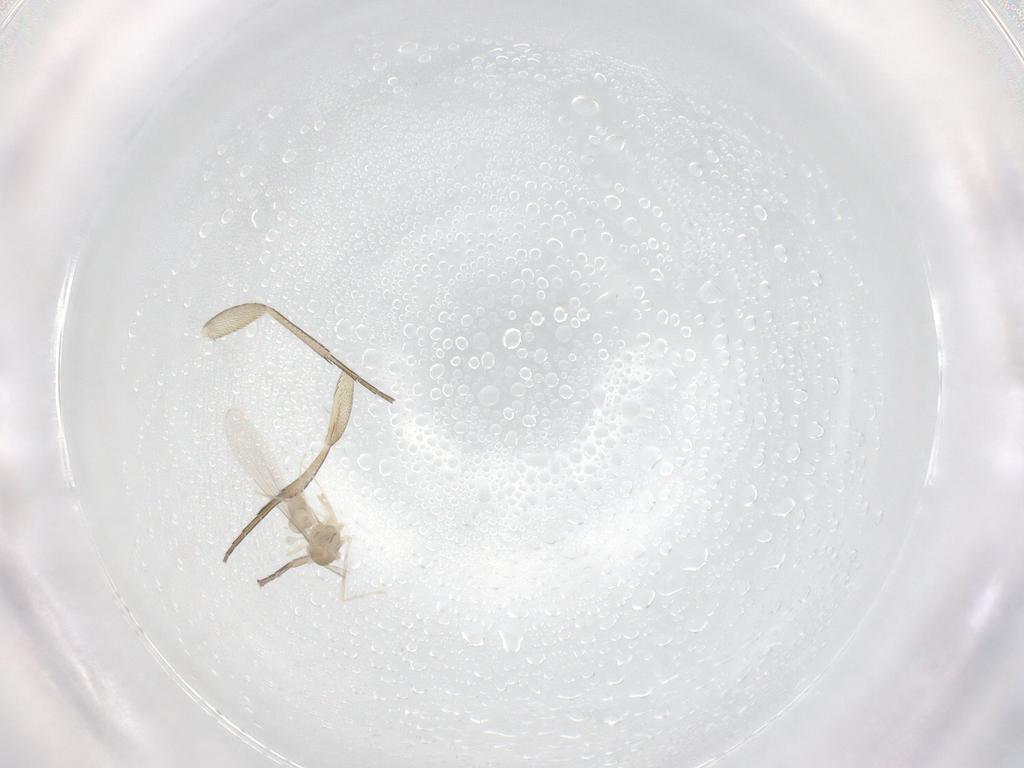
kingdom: Animalia
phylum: Arthropoda
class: Insecta
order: Diptera
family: Cecidomyiidae
